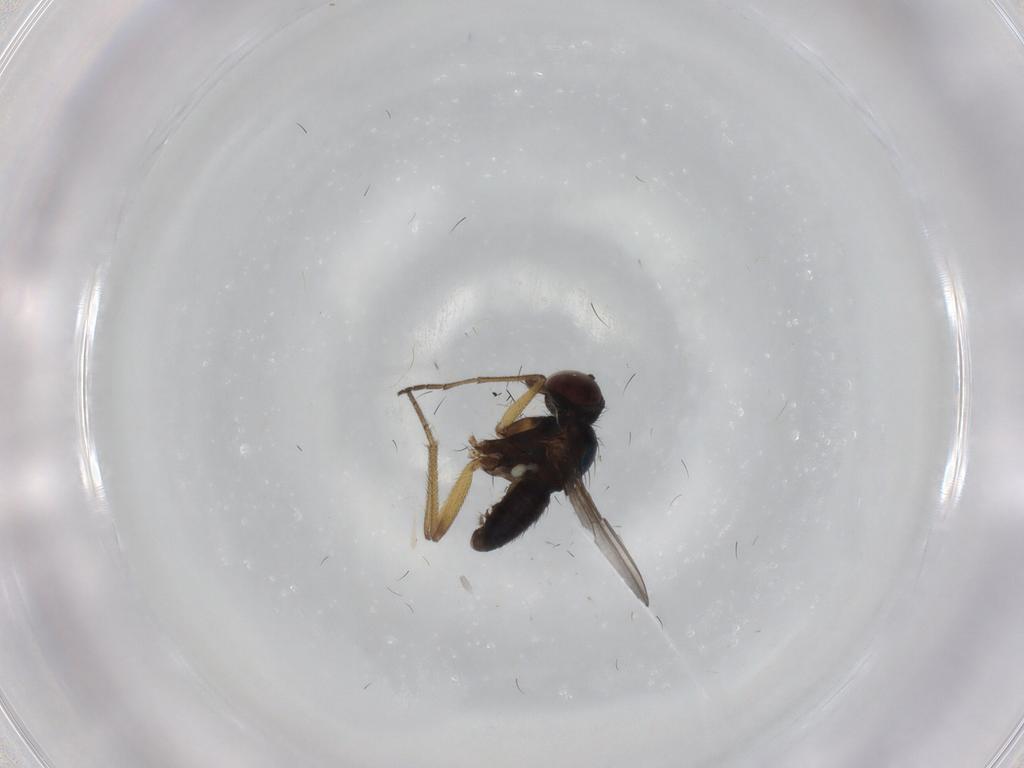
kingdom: Animalia
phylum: Arthropoda
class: Insecta
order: Diptera
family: Dolichopodidae
